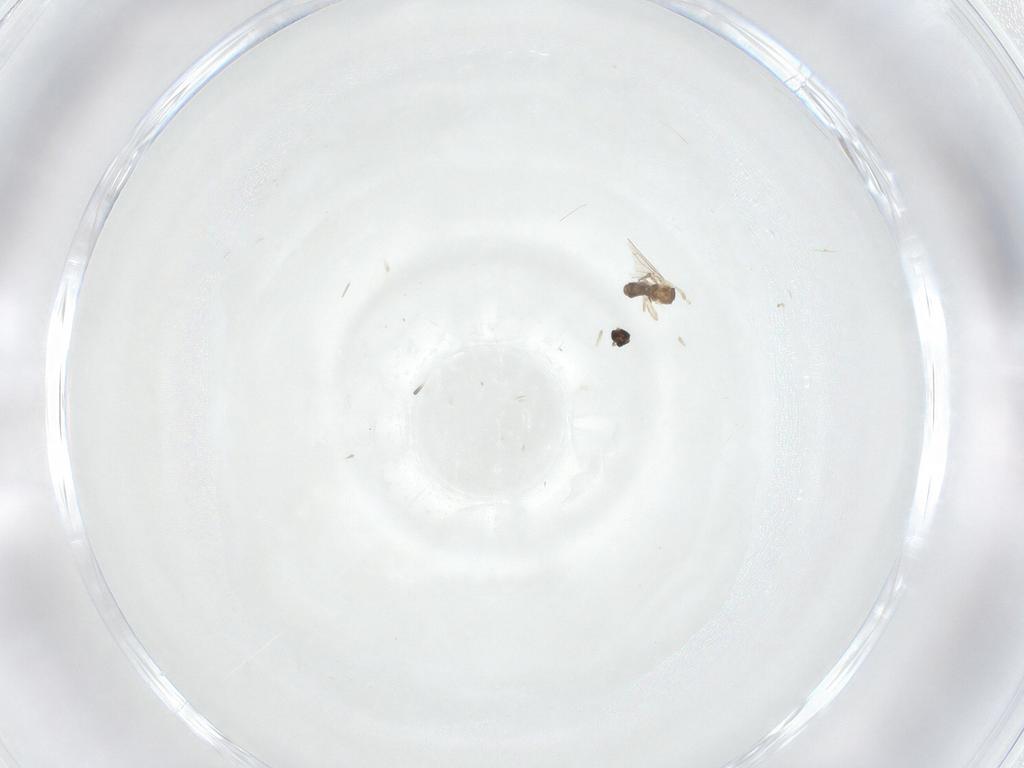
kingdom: Animalia
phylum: Arthropoda
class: Insecta
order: Diptera
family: Cecidomyiidae
